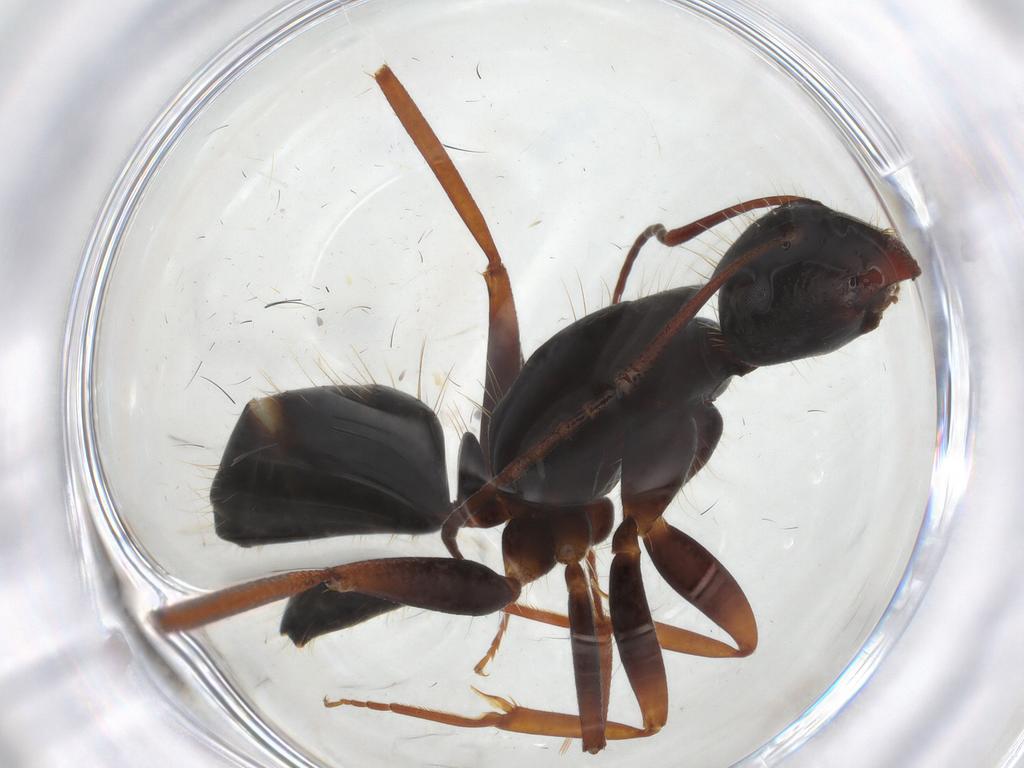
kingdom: Animalia
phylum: Arthropoda
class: Insecta
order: Hymenoptera
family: Formicidae
